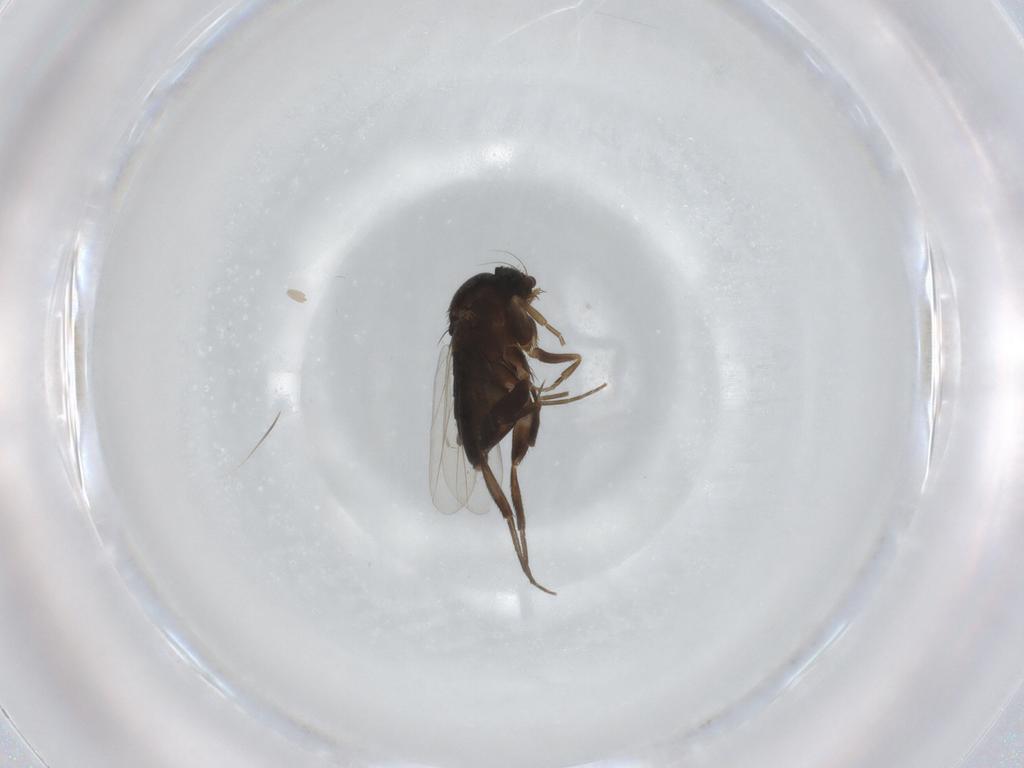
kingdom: Animalia
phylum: Arthropoda
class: Insecta
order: Diptera
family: Phoridae
